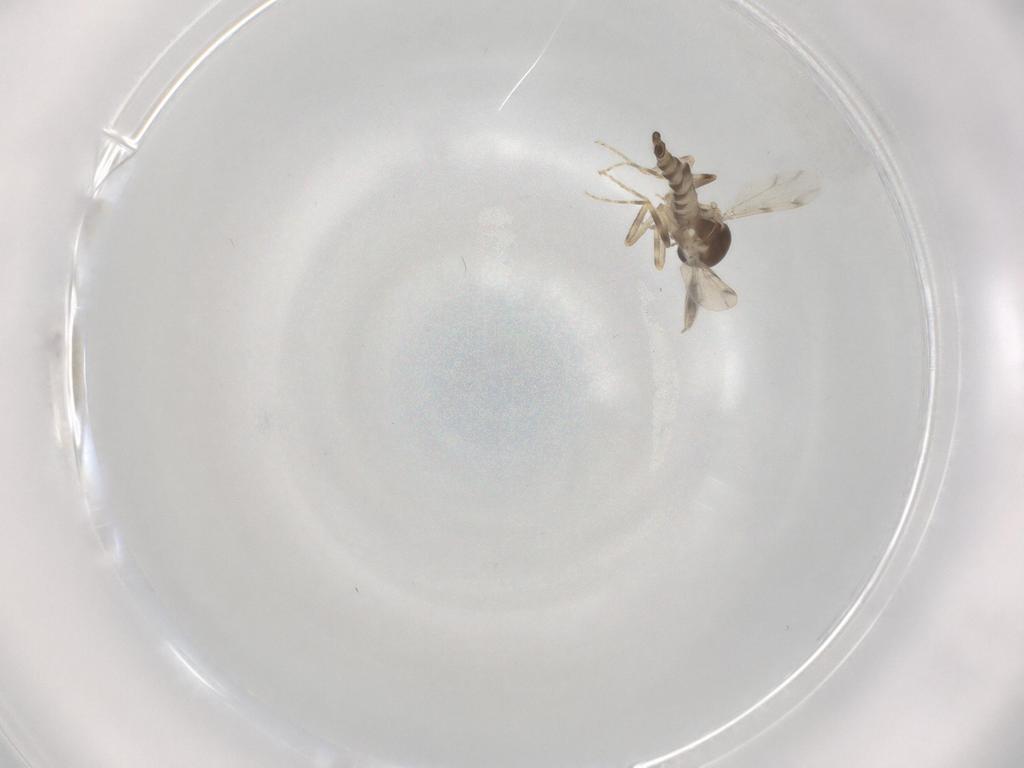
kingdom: Animalia
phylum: Arthropoda
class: Insecta
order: Diptera
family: Ceratopogonidae
